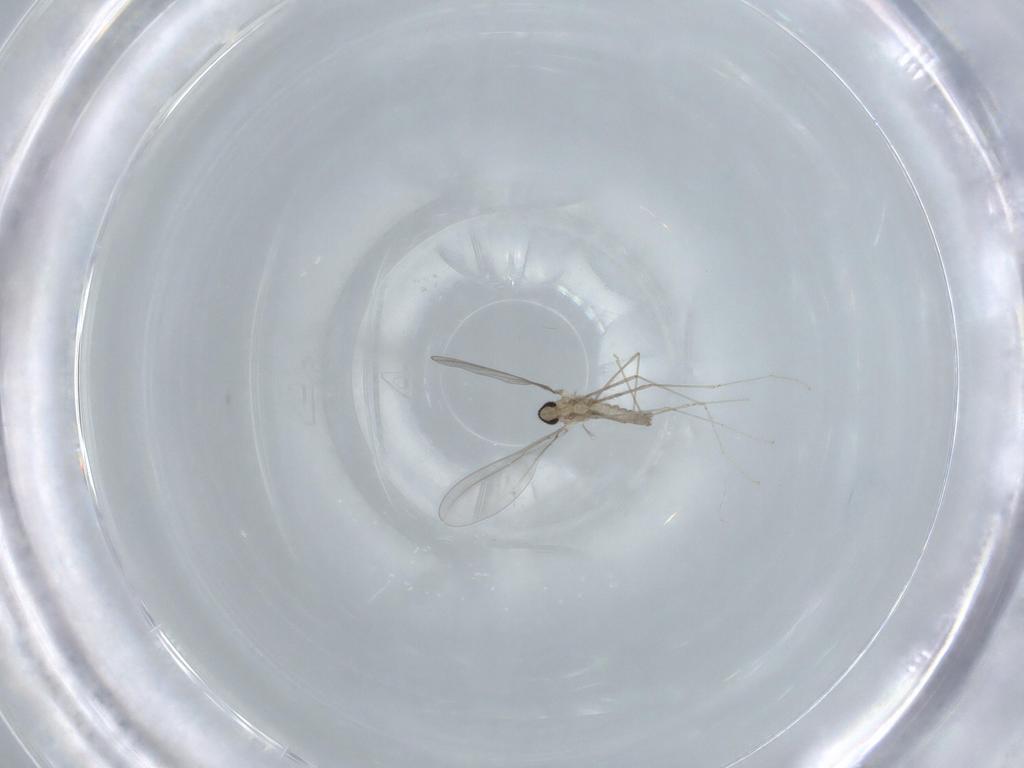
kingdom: Animalia
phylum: Arthropoda
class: Insecta
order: Diptera
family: Cecidomyiidae
